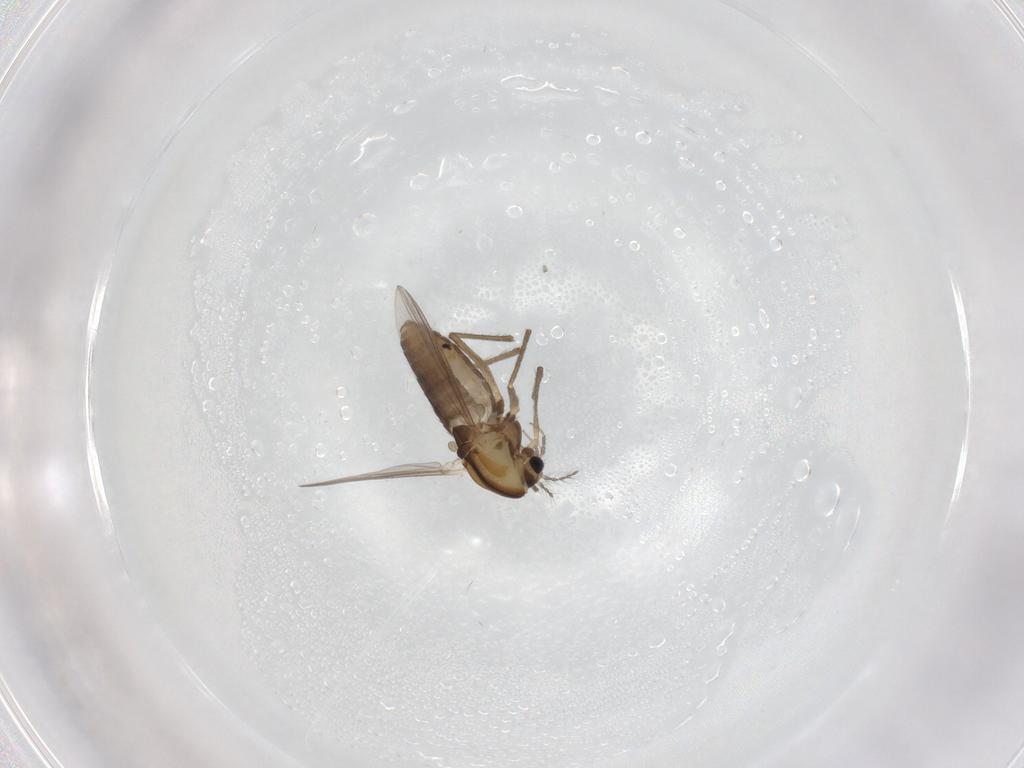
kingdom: Animalia
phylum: Arthropoda
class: Insecta
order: Diptera
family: Chironomidae
